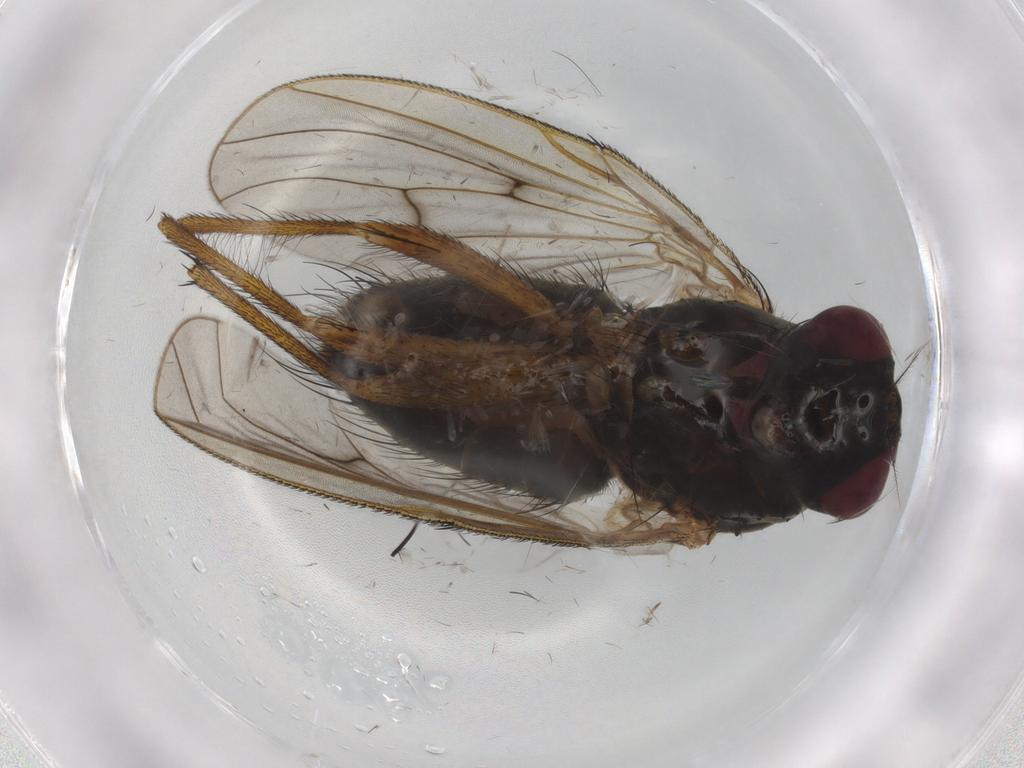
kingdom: Animalia
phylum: Arthropoda
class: Insecta
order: Diptera
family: Muscidae
